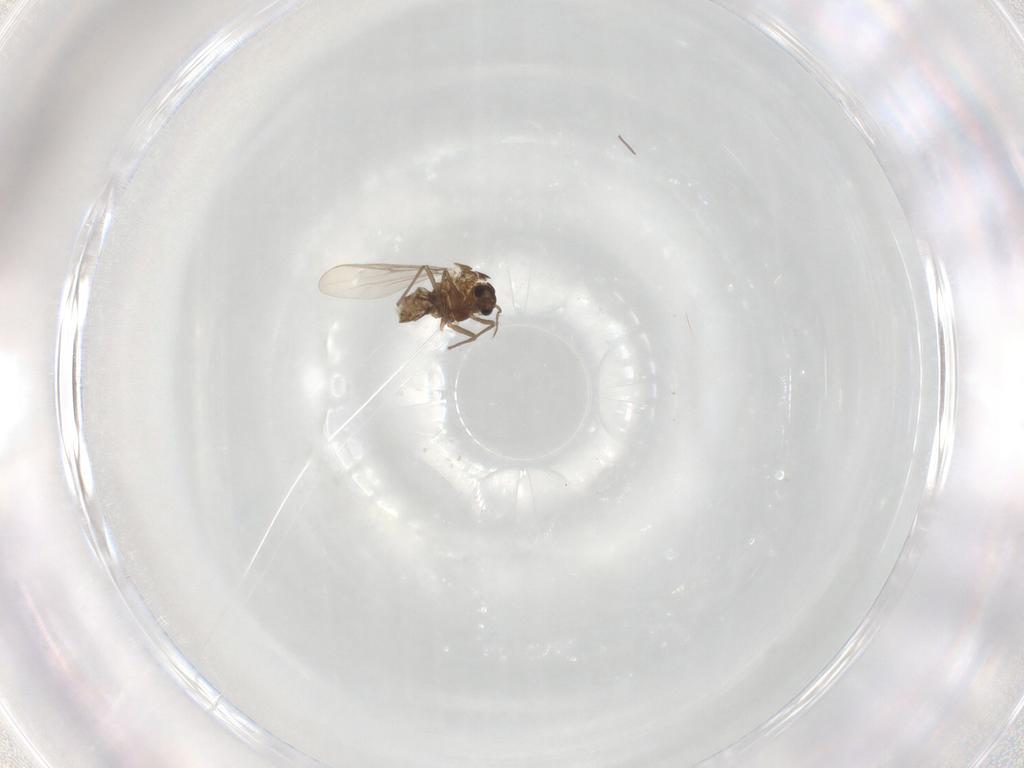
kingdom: Animalia
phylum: Arthropoda
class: Insecta
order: Diptera
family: Chironomidae
